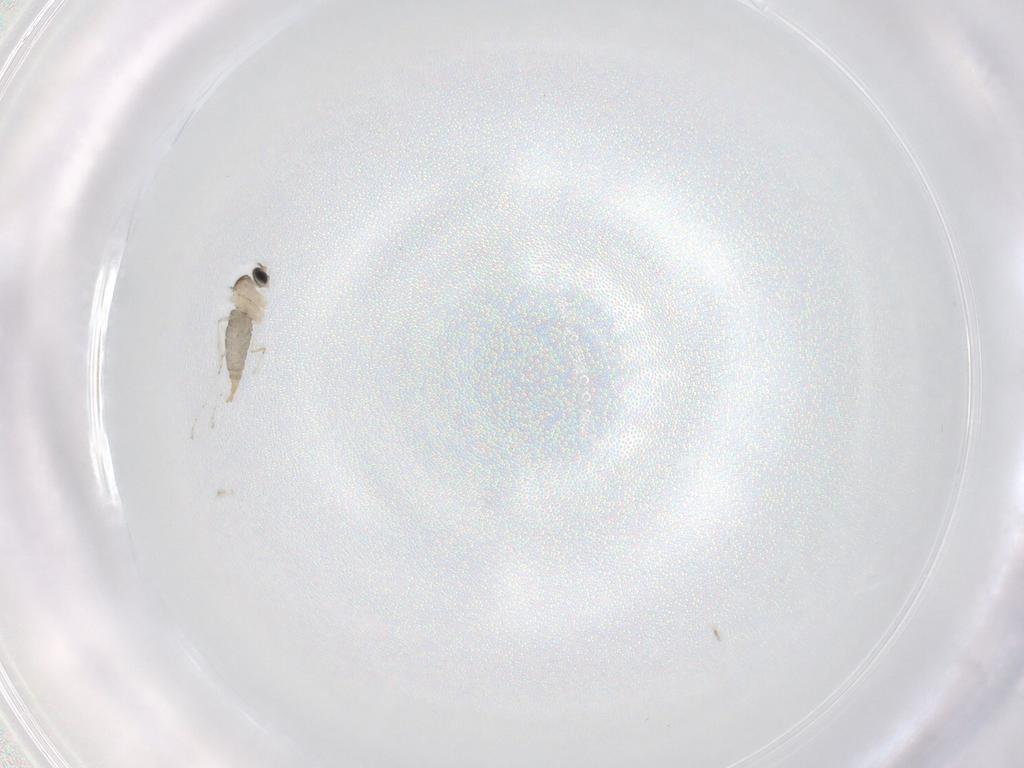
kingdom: Animalia
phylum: Arthropoda
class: Insecta
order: Diptera
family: Cecidomyiidae
